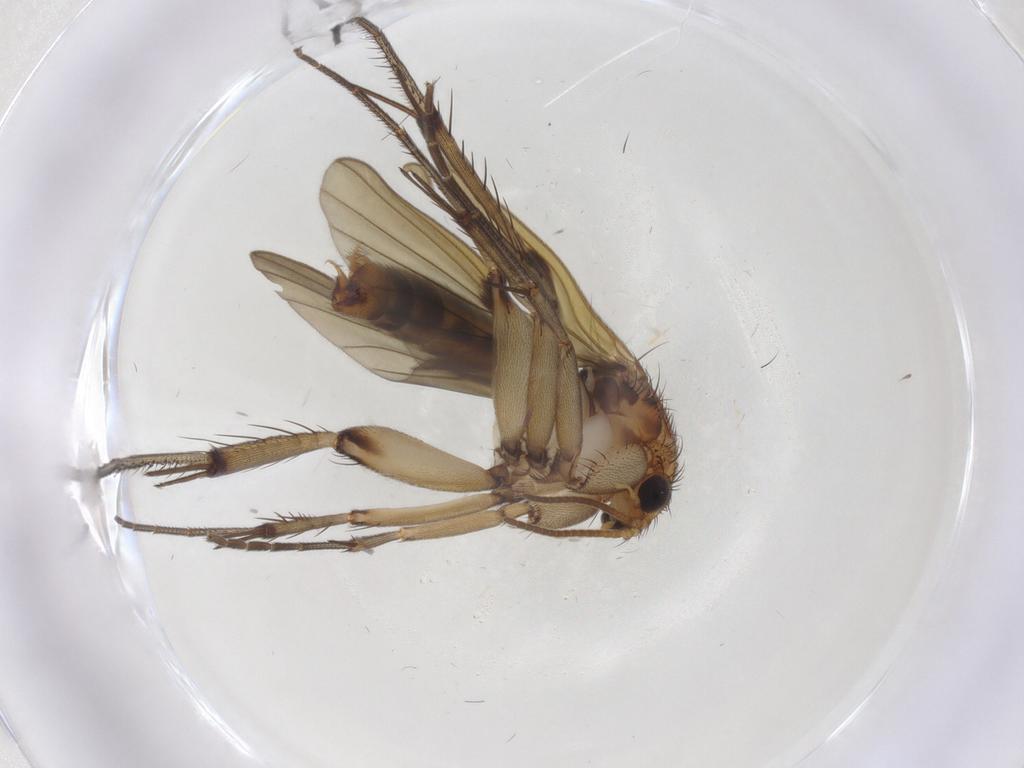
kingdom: Animalia
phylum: Arthropoda
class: Insecta
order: Diptera
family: Mycetophilidae
